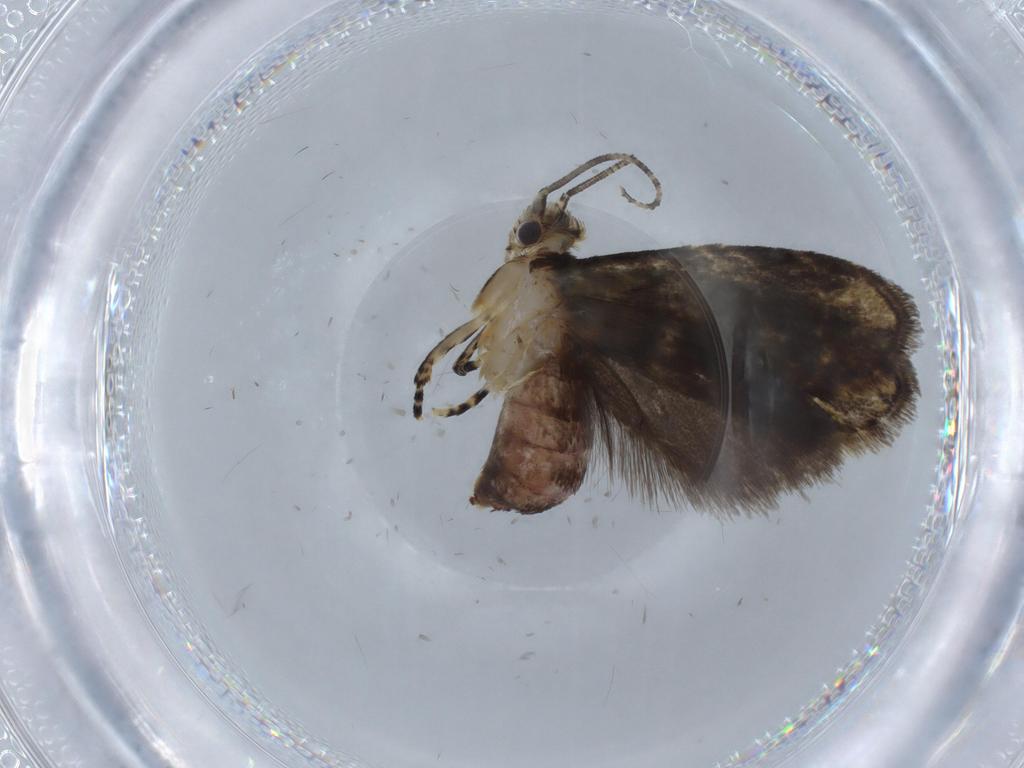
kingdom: Animalia
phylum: Arthropoda
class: Insecta
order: Lepidoptera
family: Tineidae
